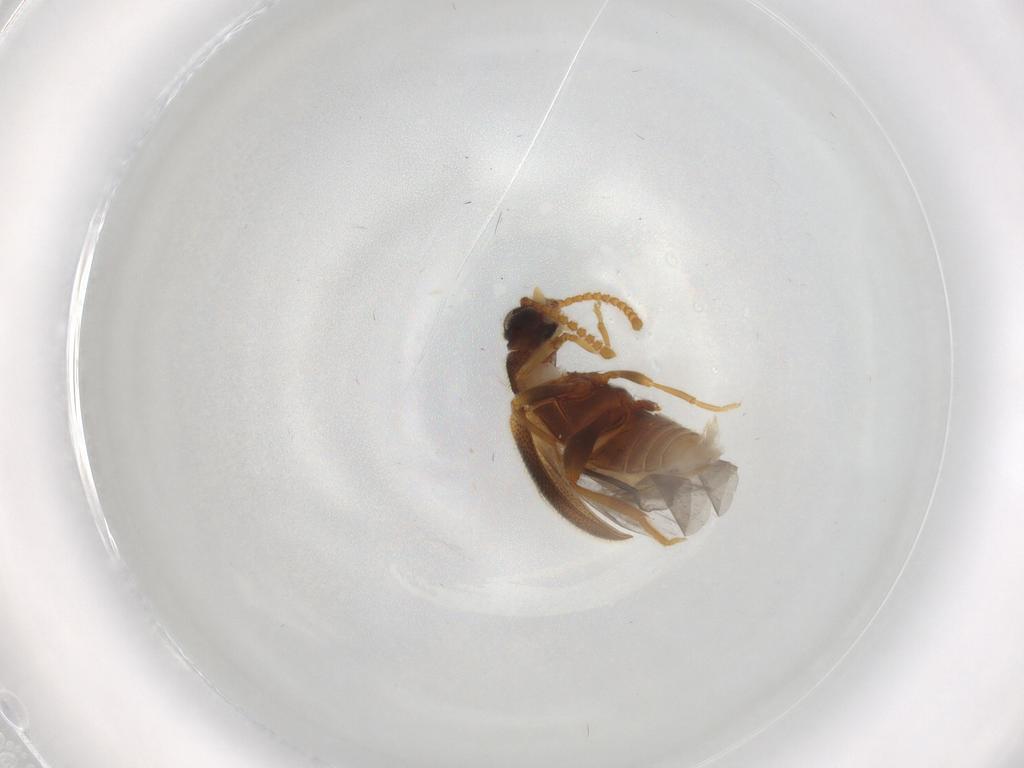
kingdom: Animalia
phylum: Arthropoda
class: Insecta
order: Coleoptera
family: Aderidae
